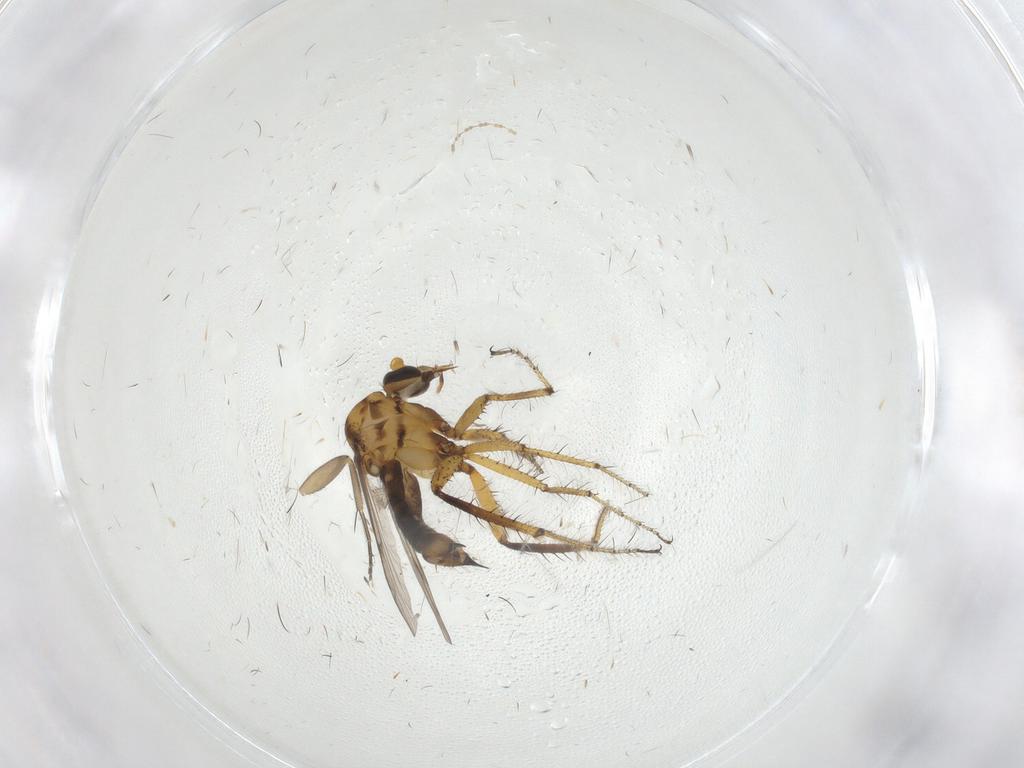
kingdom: Animalia
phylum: Arthropoda
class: Insecta
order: Diptera
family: Ceratopogonidae
